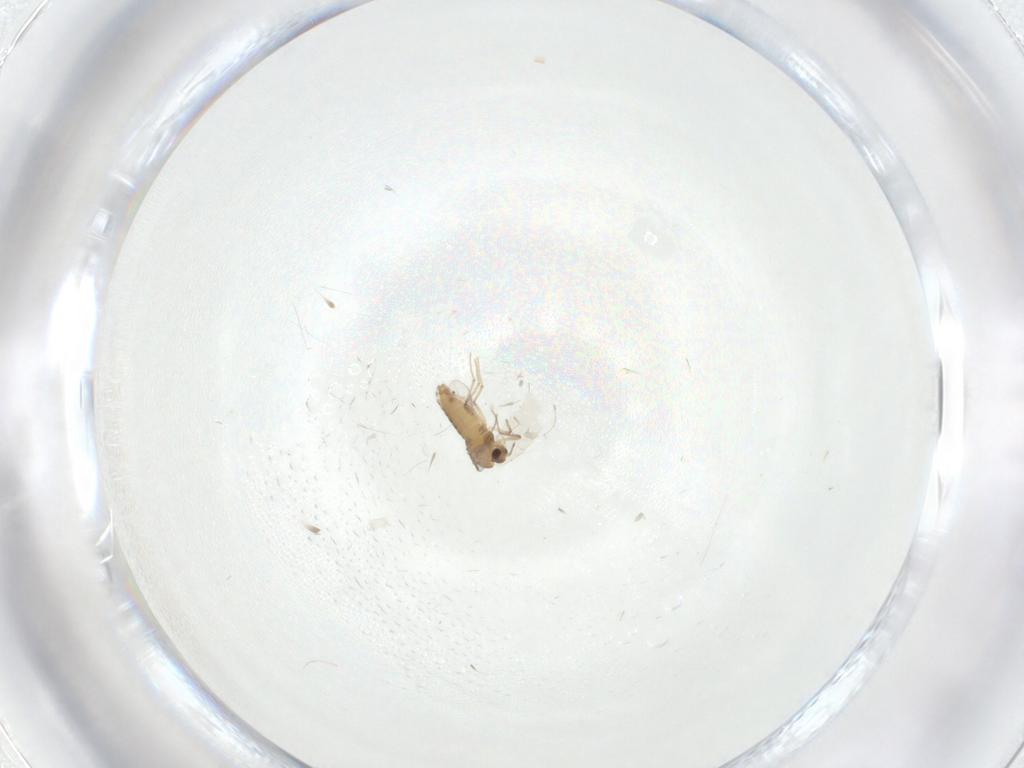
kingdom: Animalia
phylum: Arthropoda
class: Insecta
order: Diptera
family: Chironomidae
